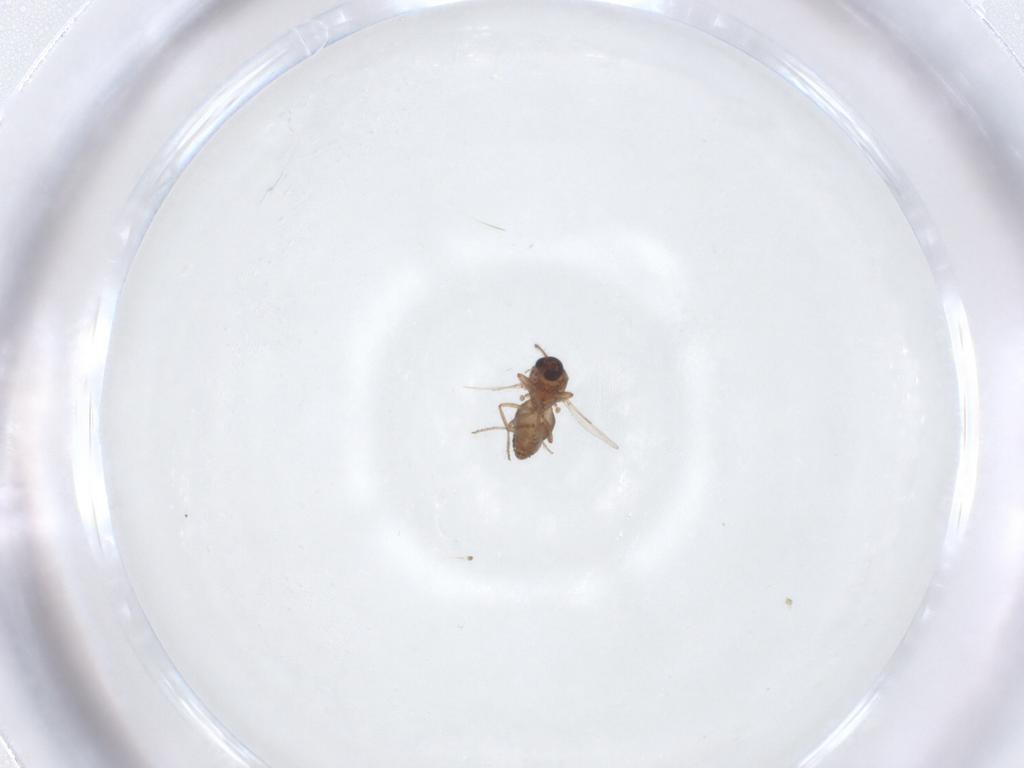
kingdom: Animalia
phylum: Arthropoda
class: Insecta
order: Diptera
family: Ceratopogonidae
